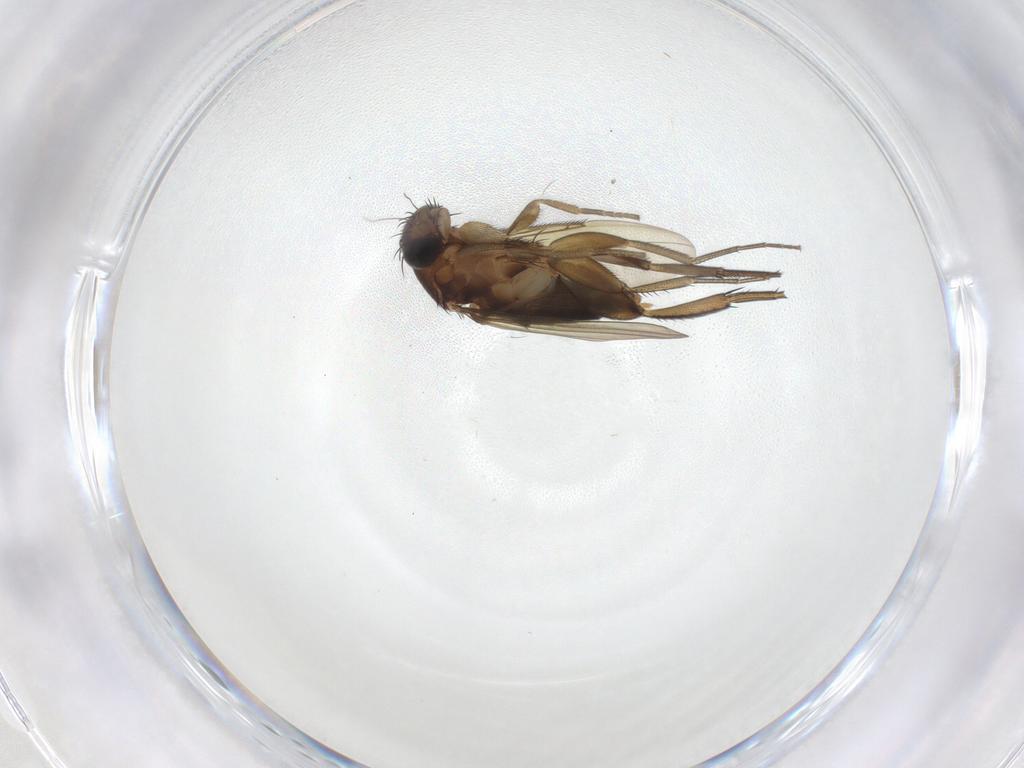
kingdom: Animalia
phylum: Arthropoda
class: Insecta
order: Diptera
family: Phoridae
